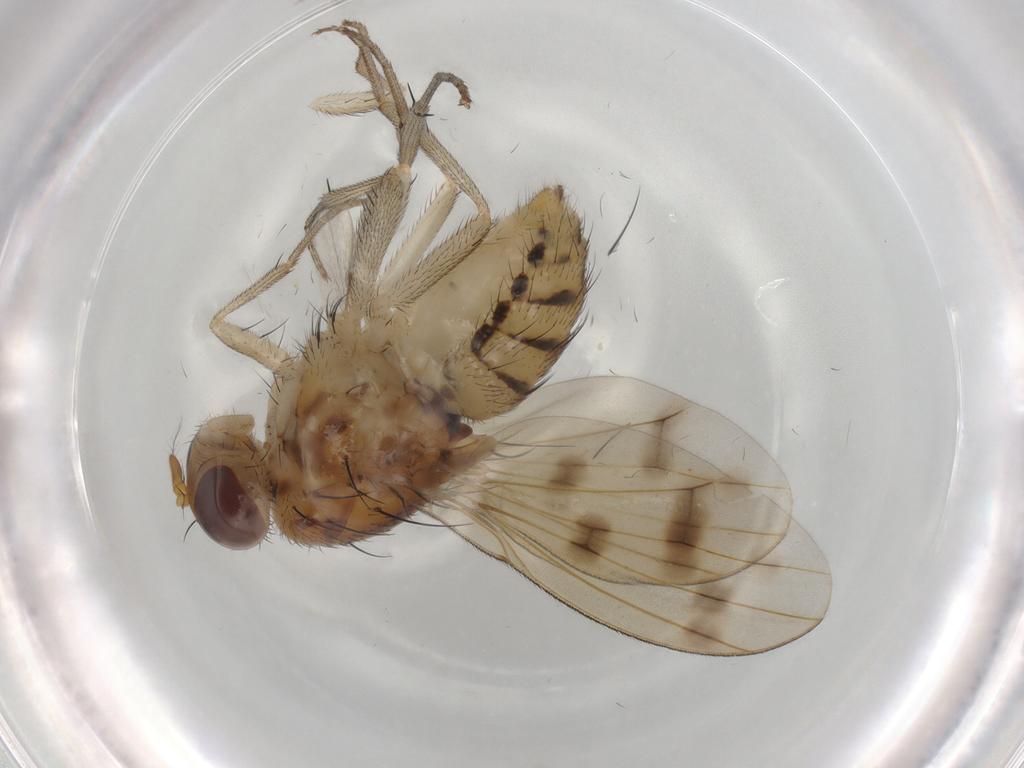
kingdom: Animalia
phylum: Arthropoda
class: Insecta
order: Diptera
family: Ceratopogonidae
